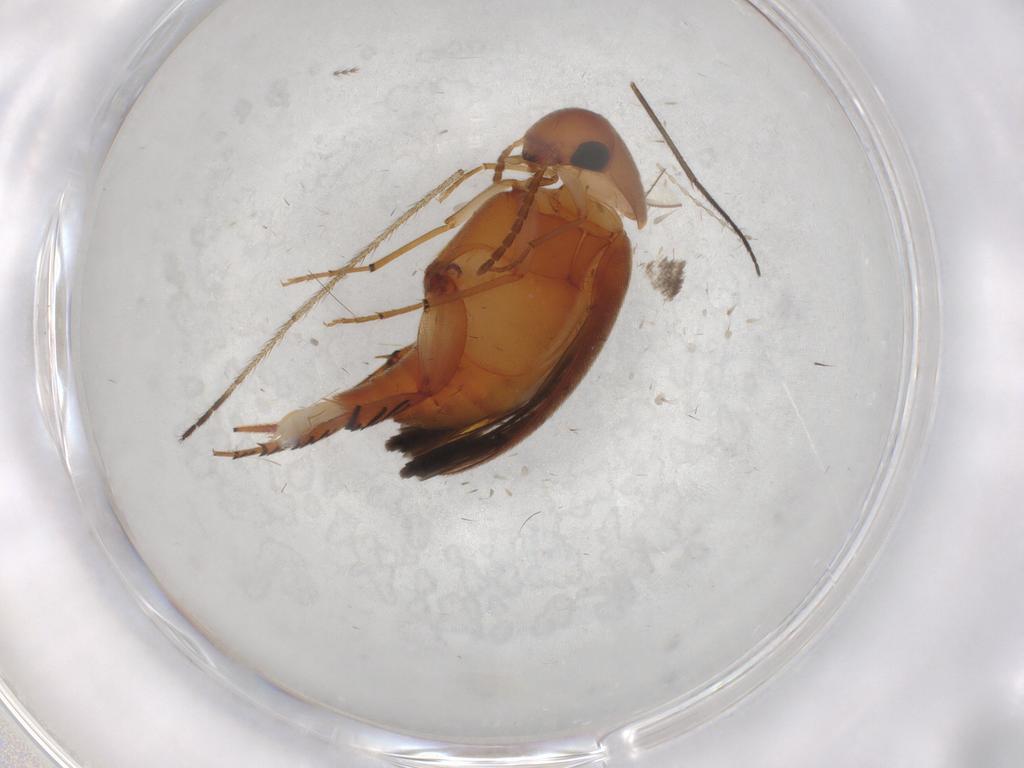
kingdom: Animalia
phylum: Arthropoda
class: Insecta
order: Coleoptera
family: Mordellidae
